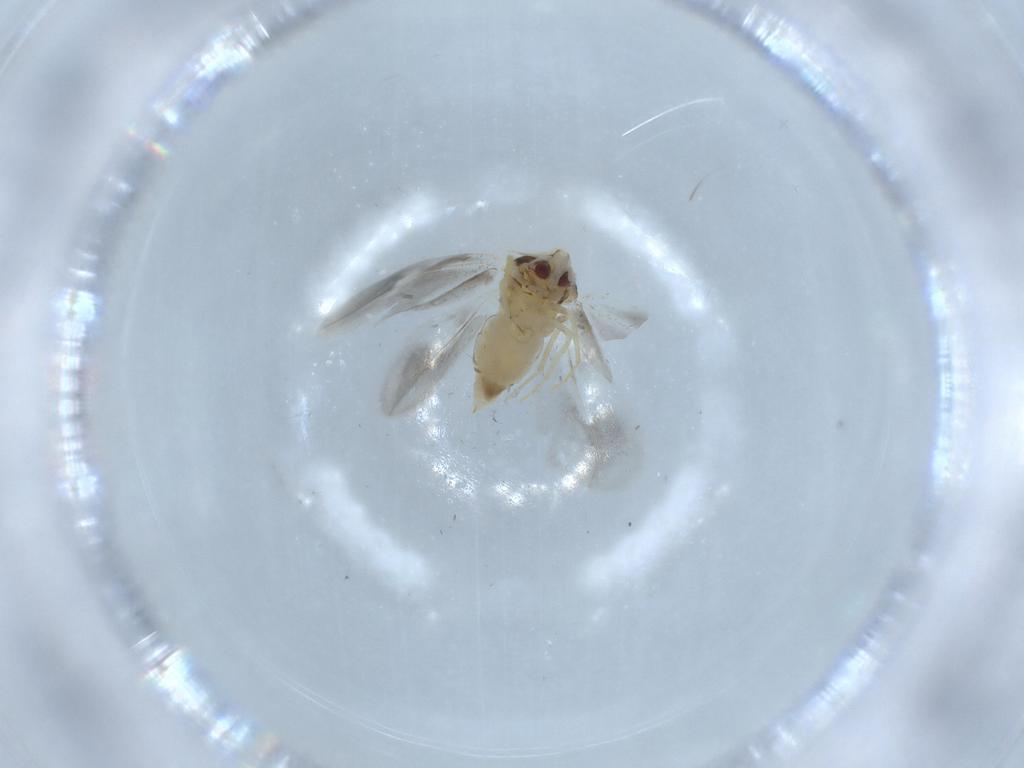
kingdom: Animalia
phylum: Arthropoda
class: Insecta
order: Hemiptera
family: Aleyrodidae
